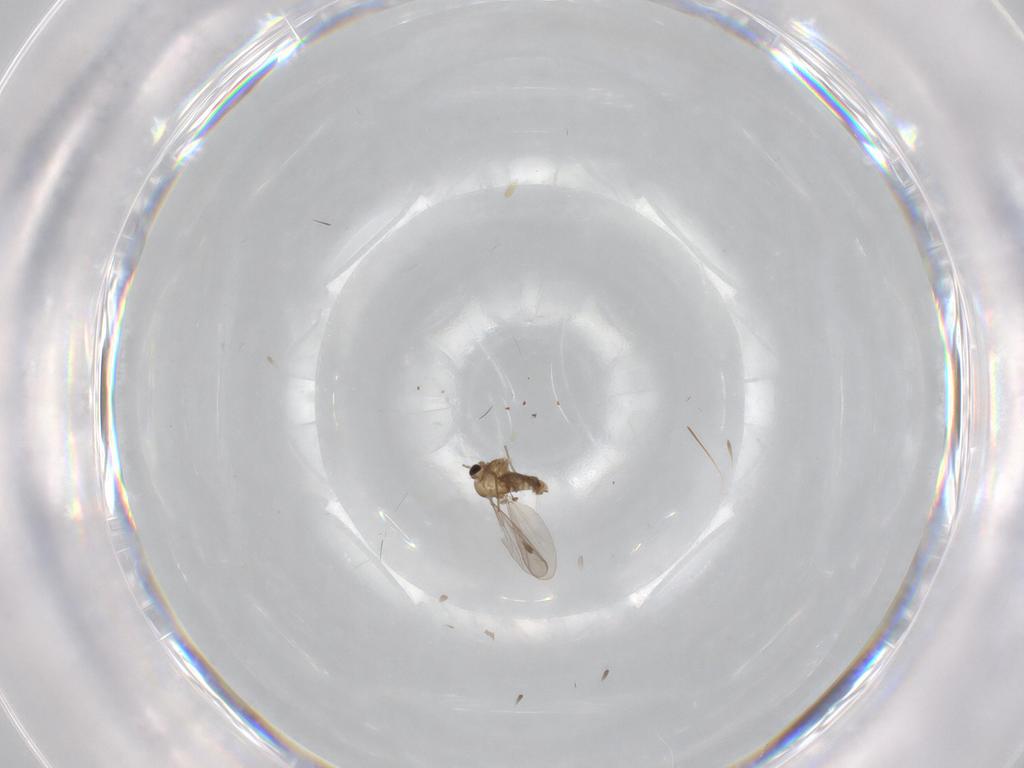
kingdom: Animalia
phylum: Arthropoda
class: Insecta
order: Diptera
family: Chironomidae
